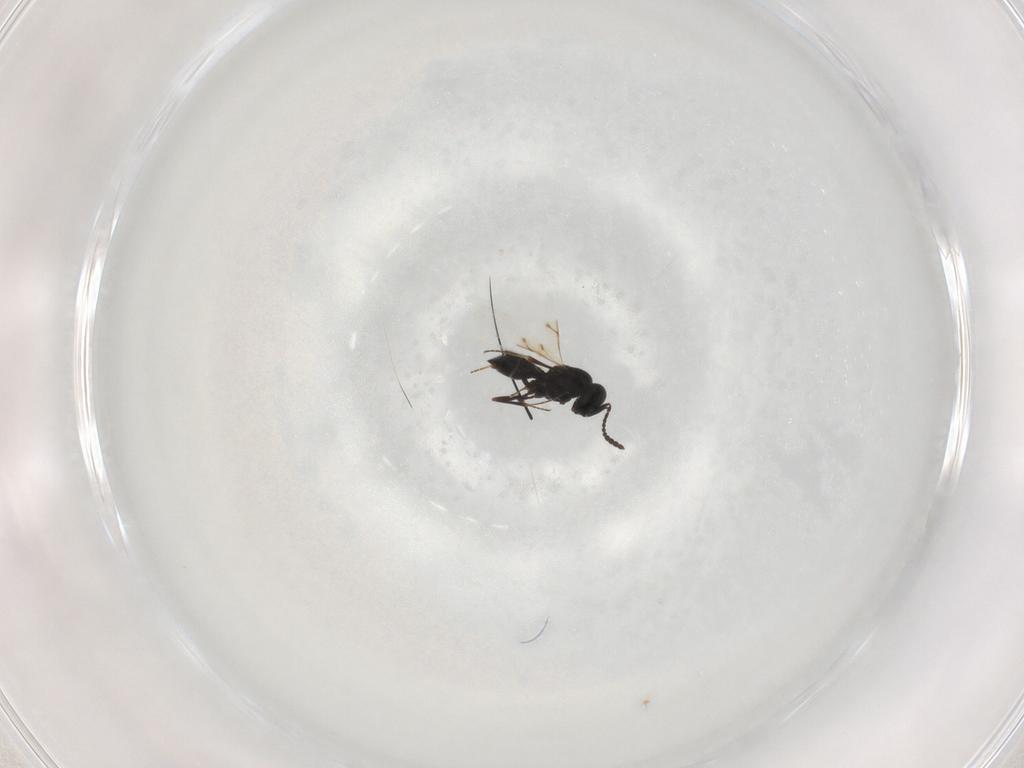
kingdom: Animalia
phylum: Arthropoda
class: Insecta
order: Hymenoptera
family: Scelionidae
